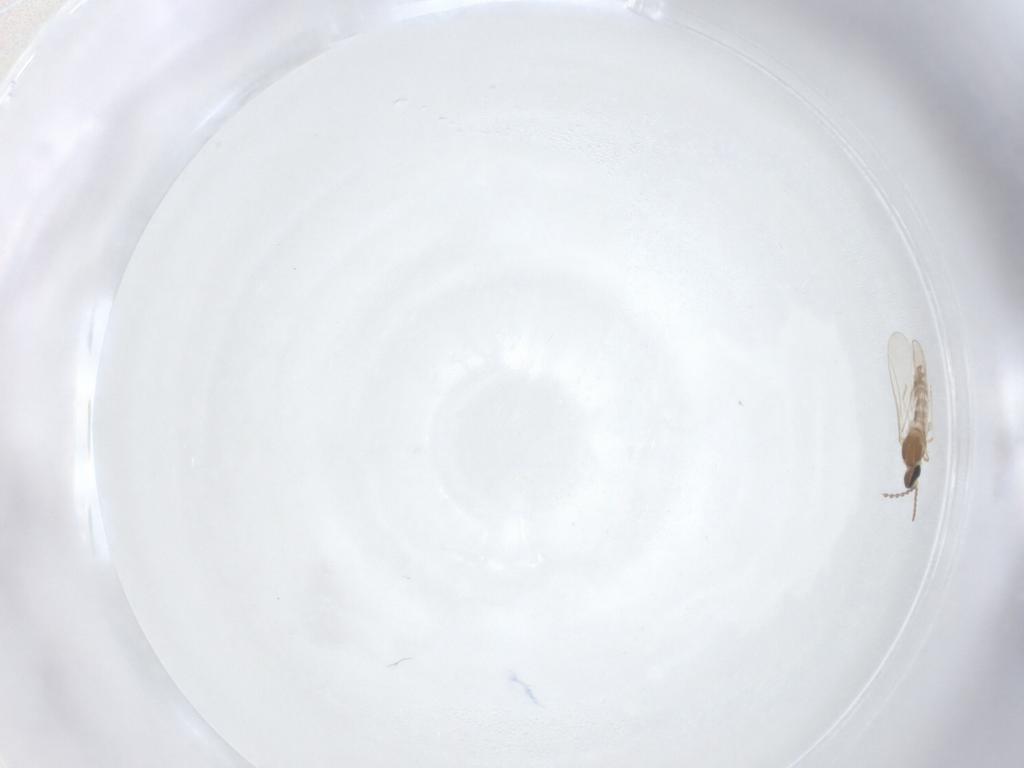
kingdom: Animalia
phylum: Arthropoda
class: Insecta
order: Diptera
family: Cecidomyiidae
